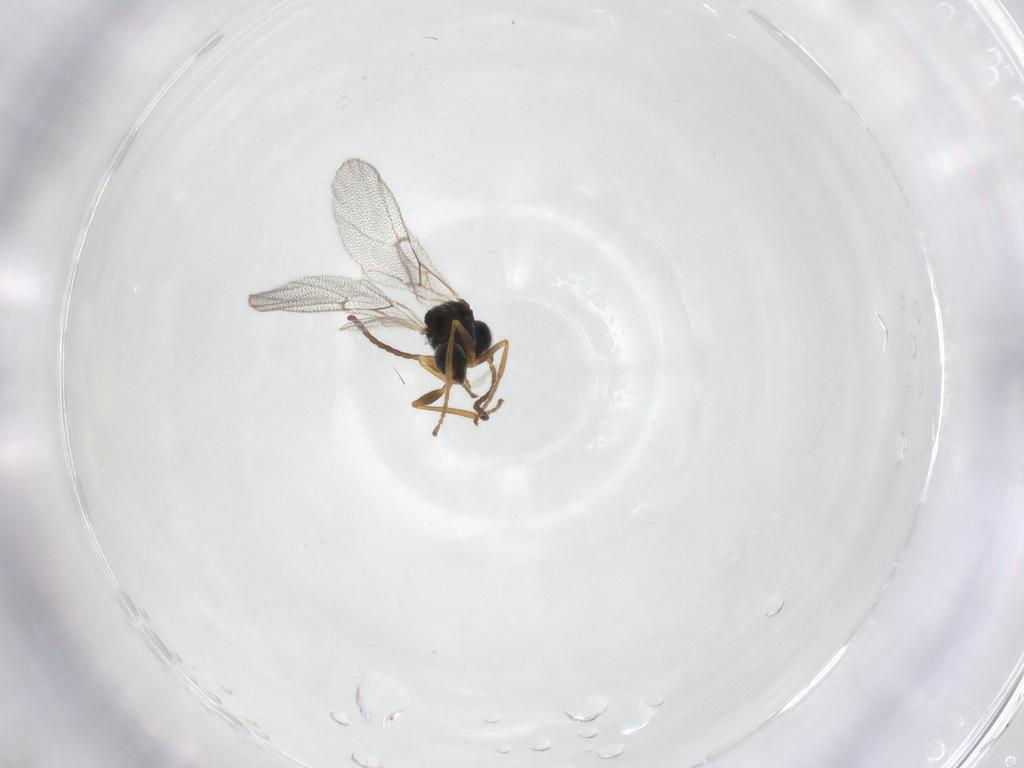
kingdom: Animalia
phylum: Arthropoda
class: Insecta
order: Hymenoptera
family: Cynipidae
